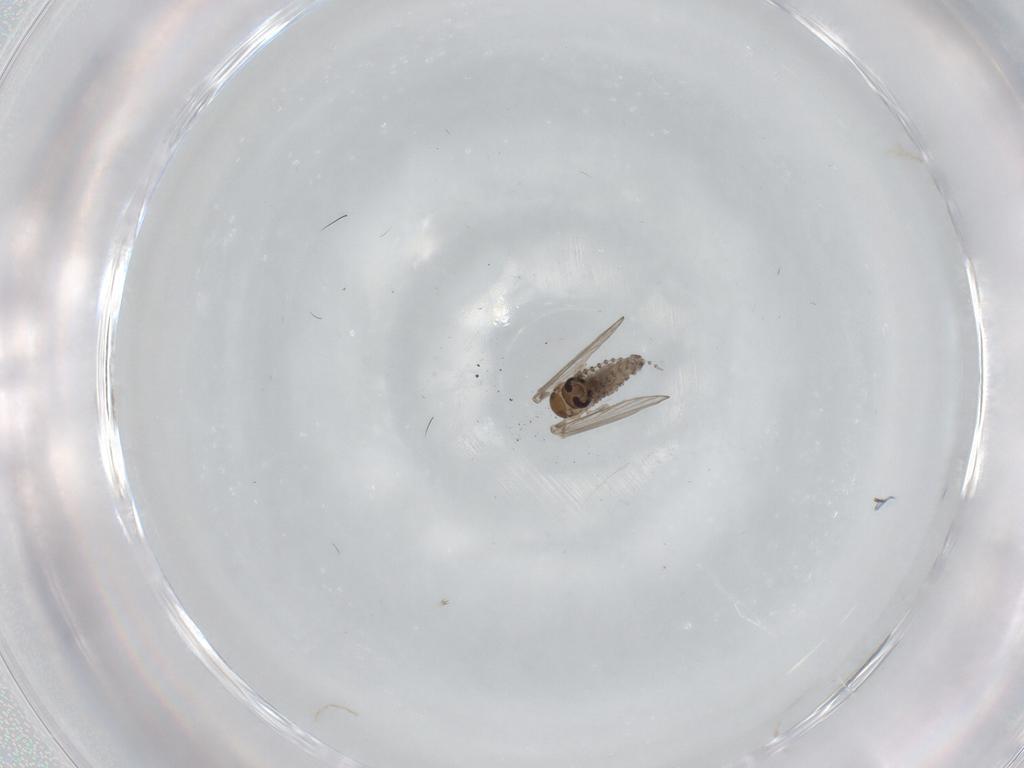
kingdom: Animalia
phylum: Arthropoda
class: Insecta
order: Diptera
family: Psychodidae
